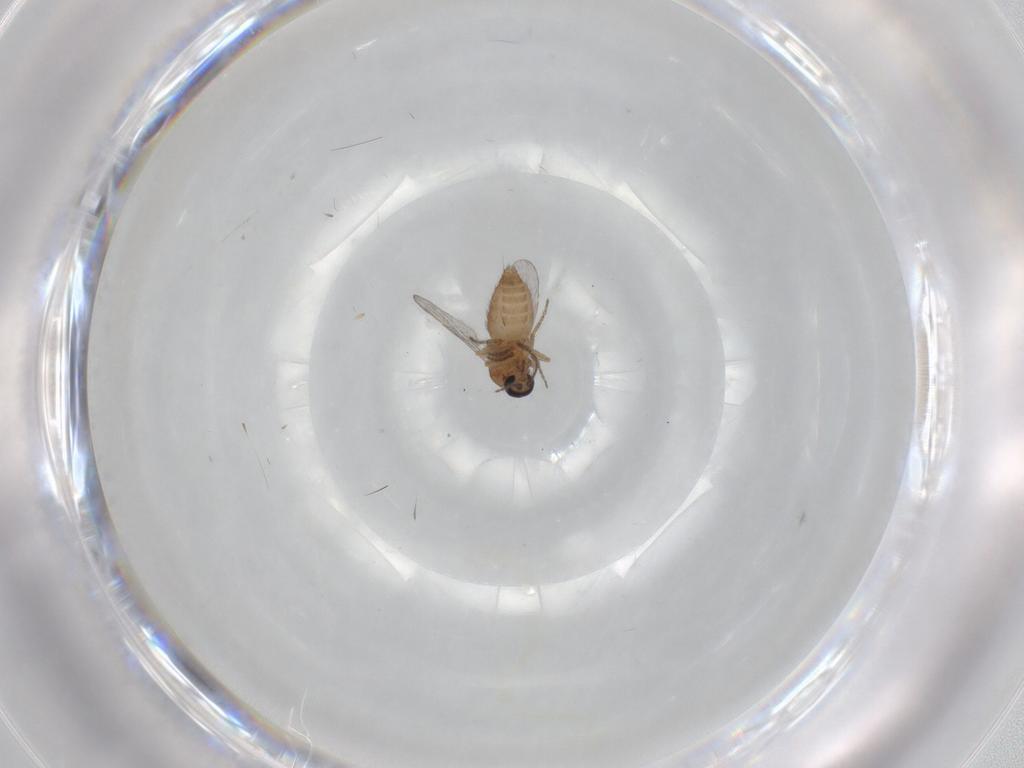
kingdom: Animalia
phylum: Arthropoda
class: Insecta
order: Diptera
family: Ceratopogonidae
